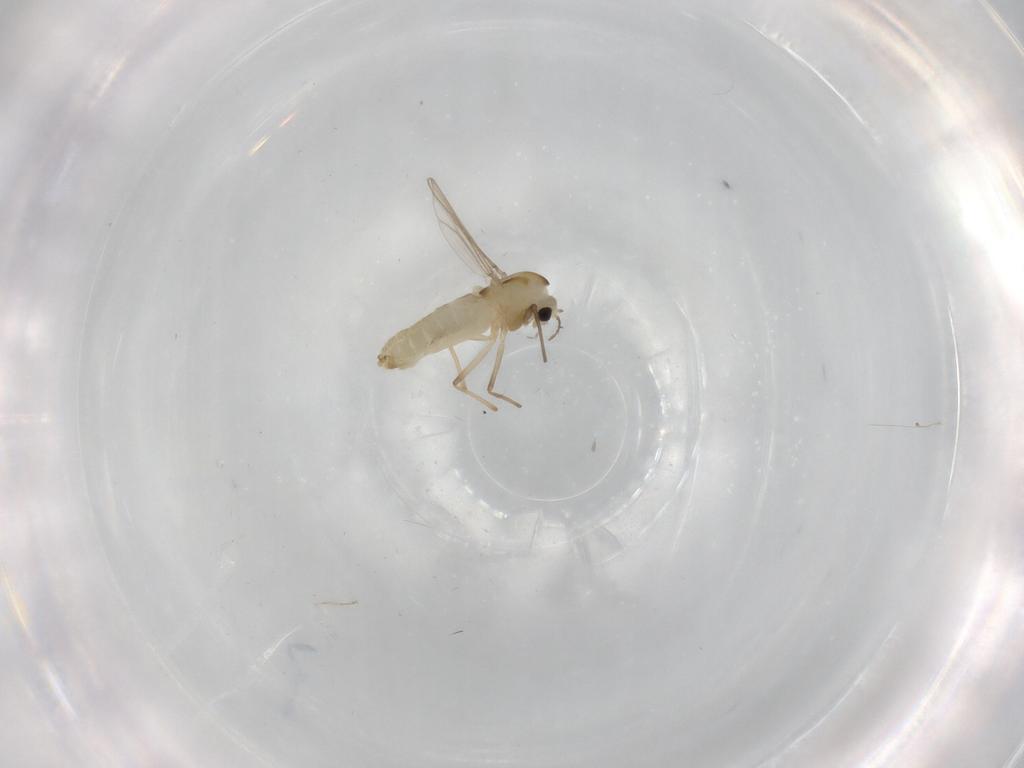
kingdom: Animalia
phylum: Arthropoda
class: Insecta
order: Diptera
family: Chironomidae
